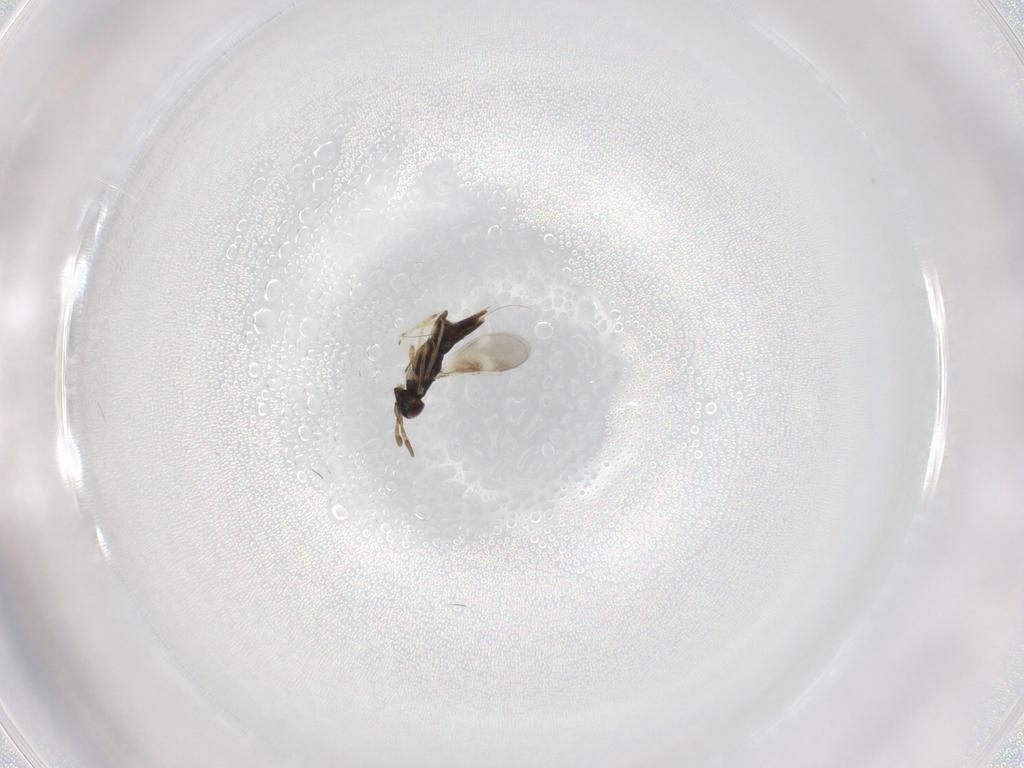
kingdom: Animalia
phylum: Arthropoda
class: Insecta
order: Hymenoptera
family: Encyrtidae
